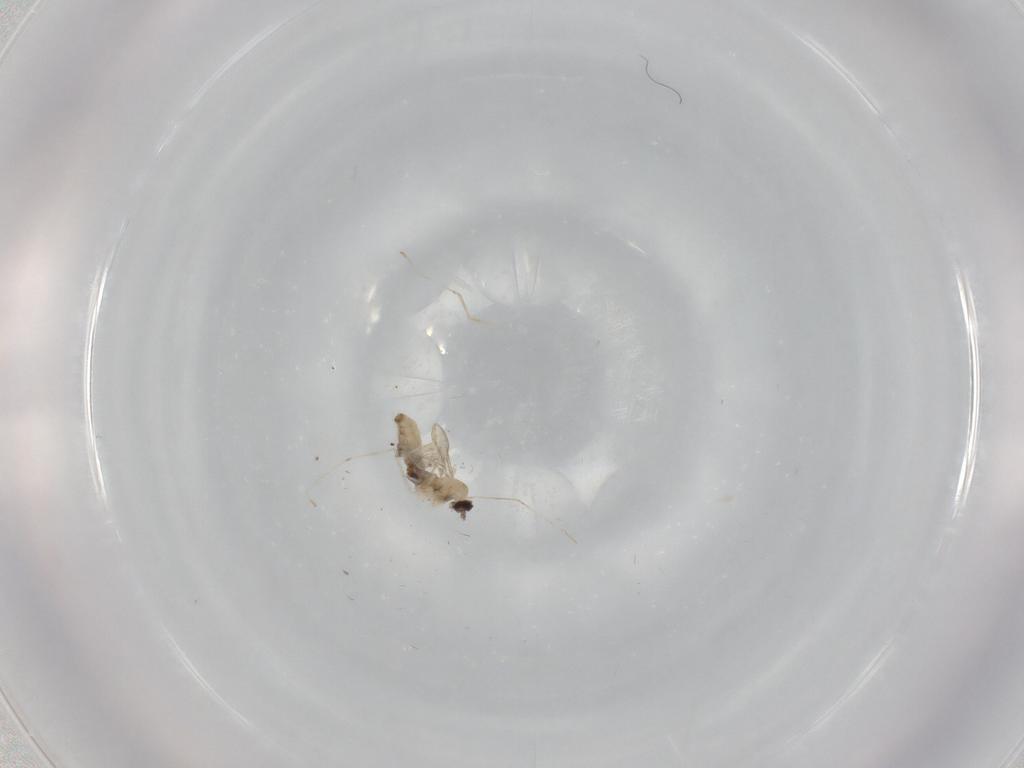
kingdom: Animalia
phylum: Arthropoda
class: Insecta
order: Diptera
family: Cecidomyiidae
